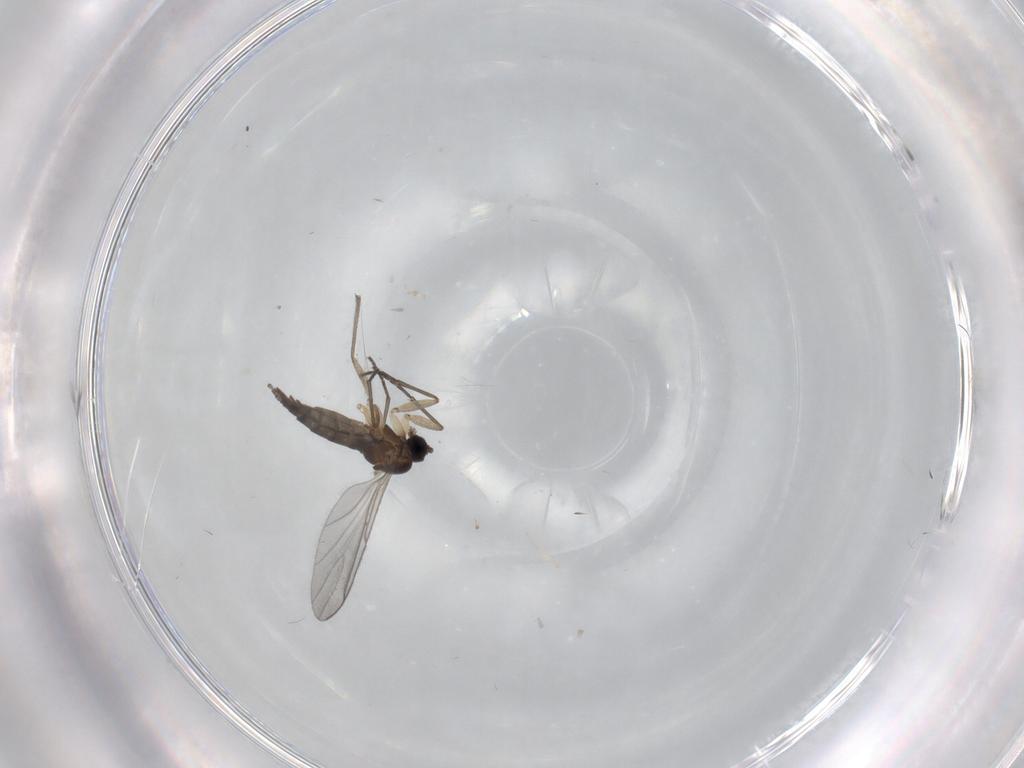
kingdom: Animalia
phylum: Arthropoda
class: Insecta
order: Diptera
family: Sciaridae
